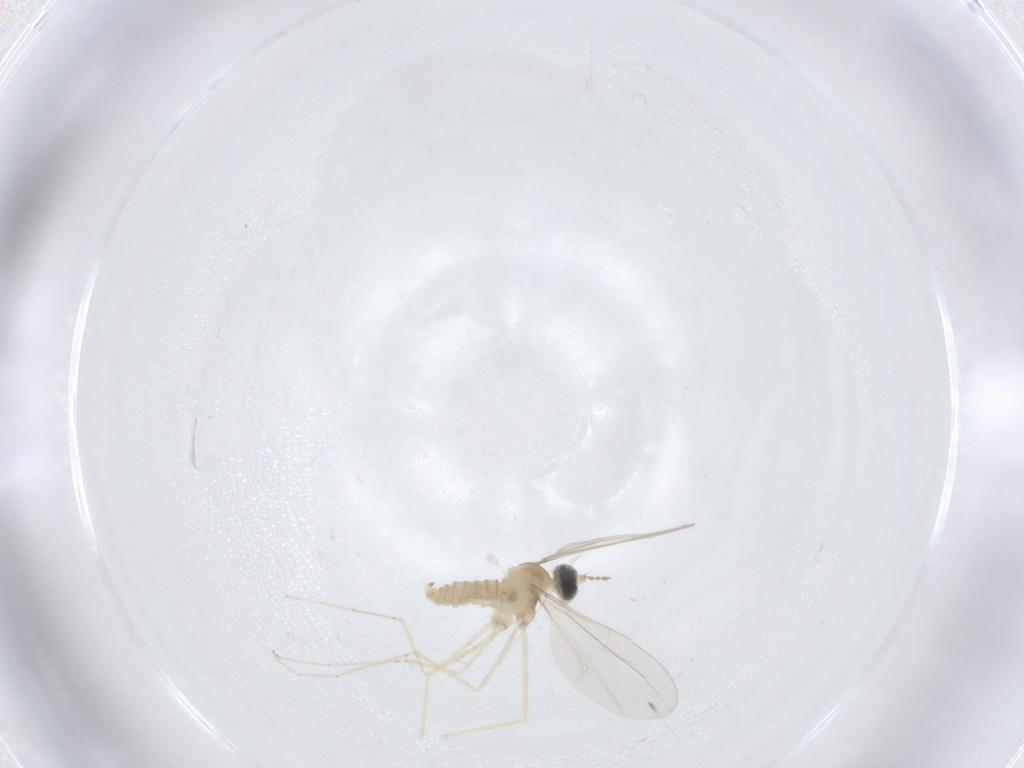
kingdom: Animalia
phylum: Arthropoda
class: Insecta
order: Diptera
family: Cecidomyiidae
